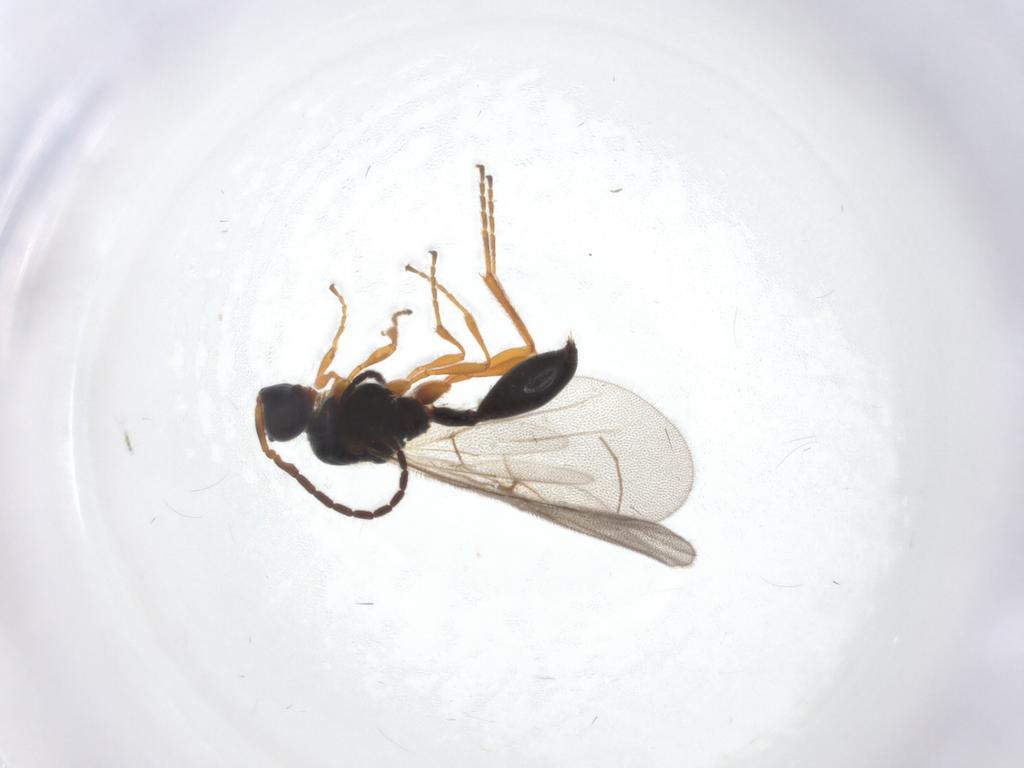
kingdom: Animalia
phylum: Arthropoda
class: Insecta
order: Hymenoptera
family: Diapriidae
